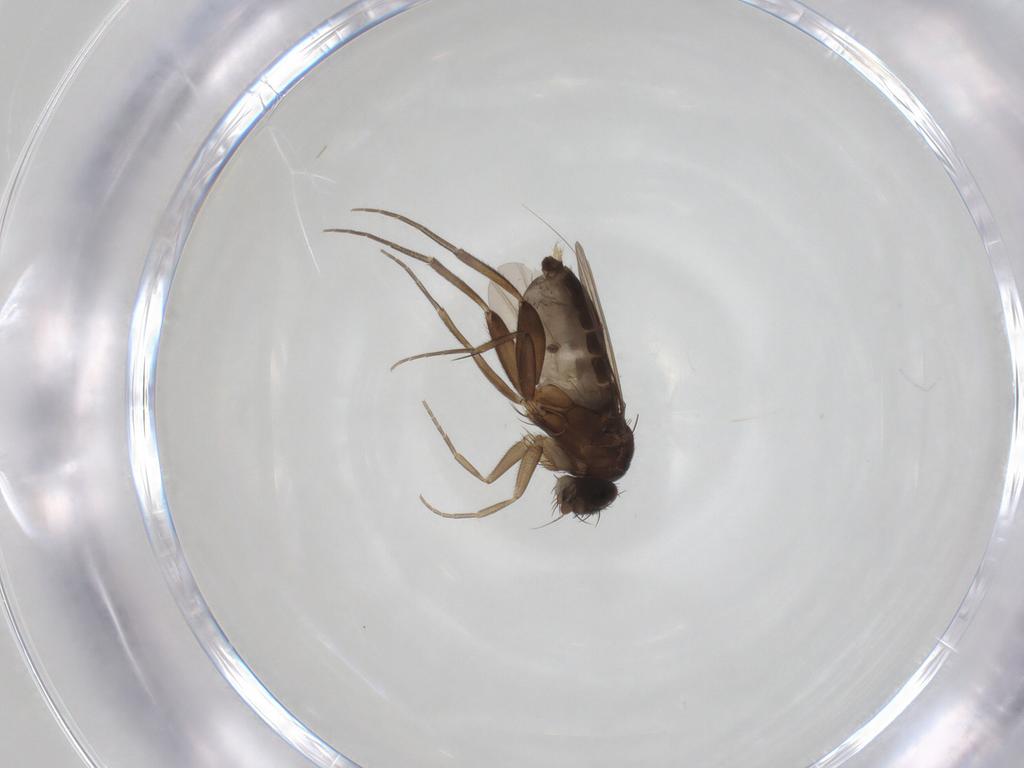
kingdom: Animalia
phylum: Arthropoda
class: Insecta
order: Diptera
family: Phoridae
